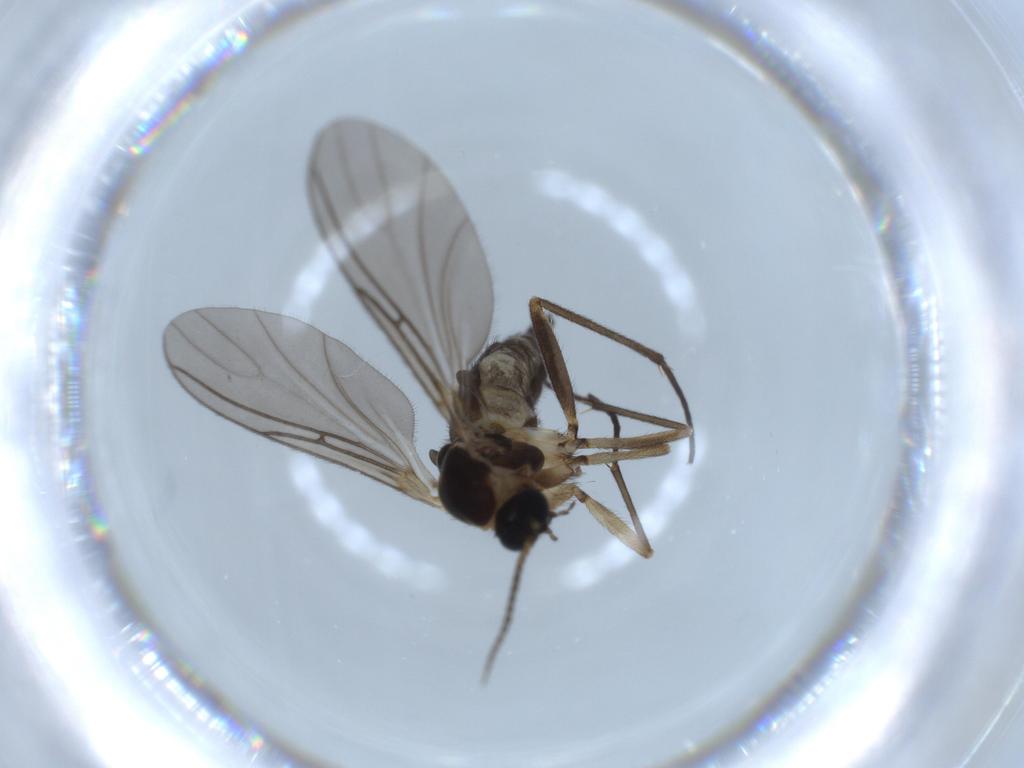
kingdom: Animalia
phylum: Arthropoda
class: Insecta
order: Diptera
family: Sciaridae
